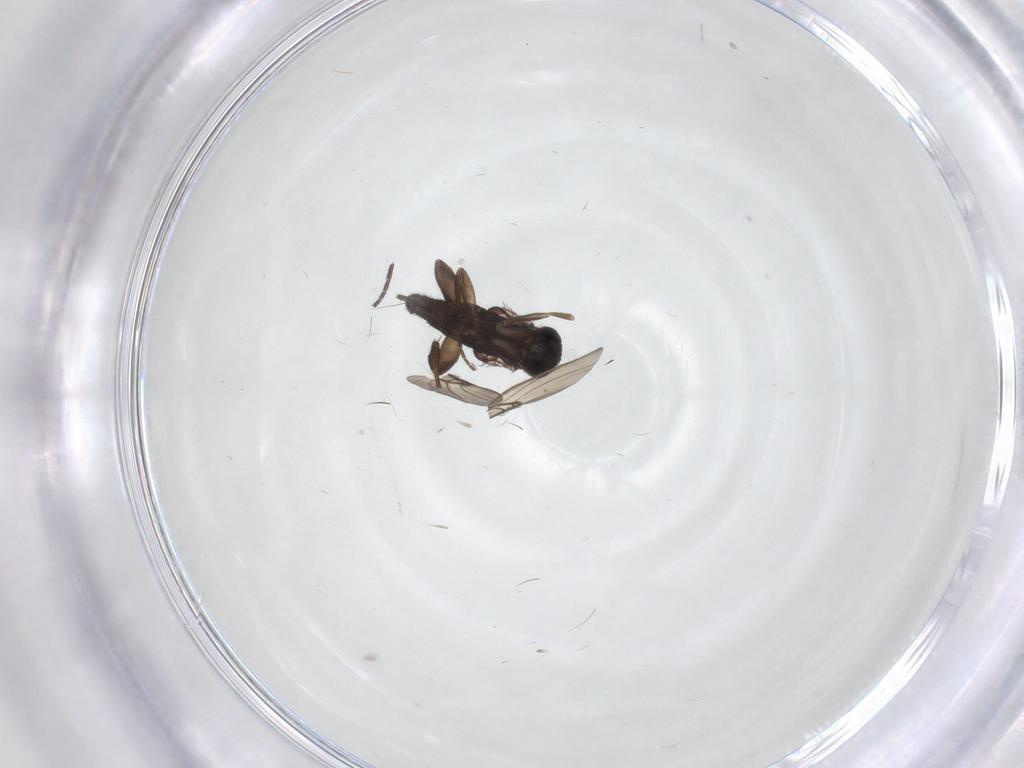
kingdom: Animalia
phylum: Arthropoda
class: Insecta
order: Diptera
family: Phoridae
